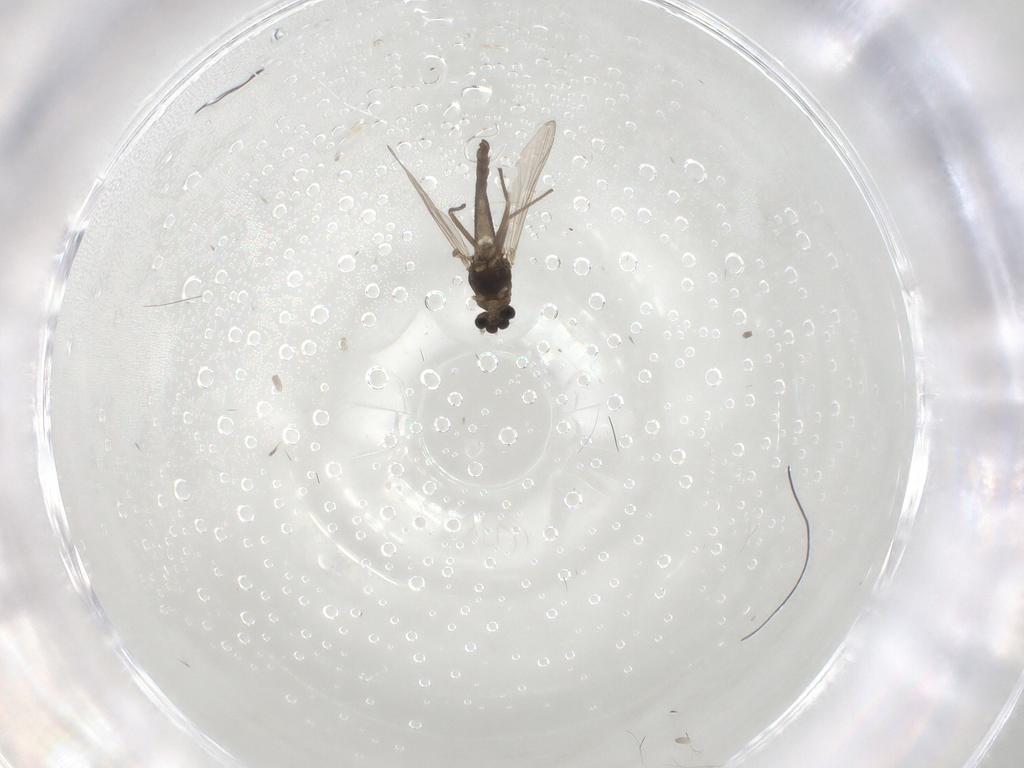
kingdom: Animalia
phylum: Arthropoda
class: Insecta
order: Diptera
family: Chironomidae
